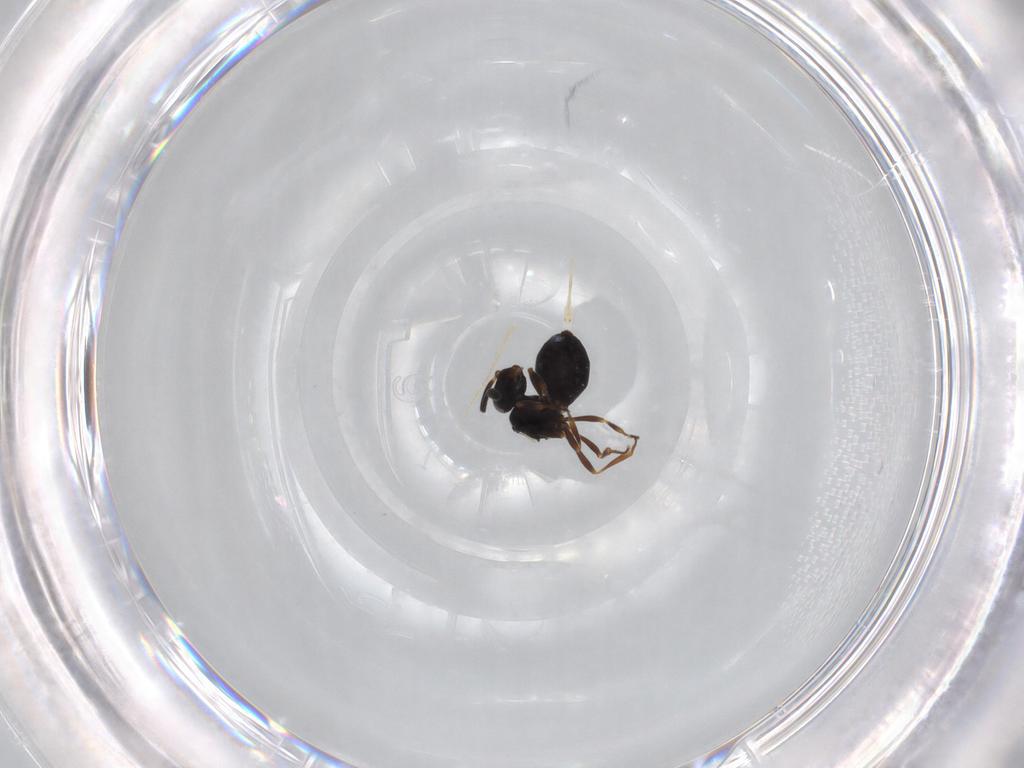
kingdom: Animalia
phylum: Arthropoda
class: Insecta
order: Hymenoptera
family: Scelionidae
